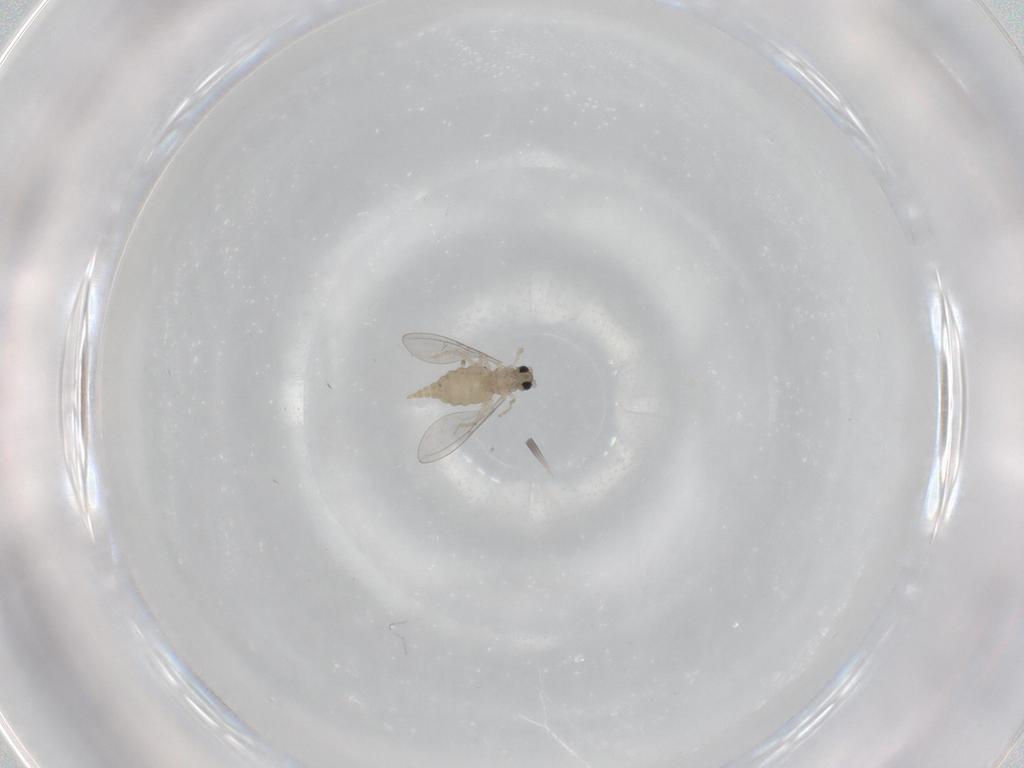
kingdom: Animalia
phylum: Arthropoda
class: Insecta
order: Diptera
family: Cecidomyiidae
